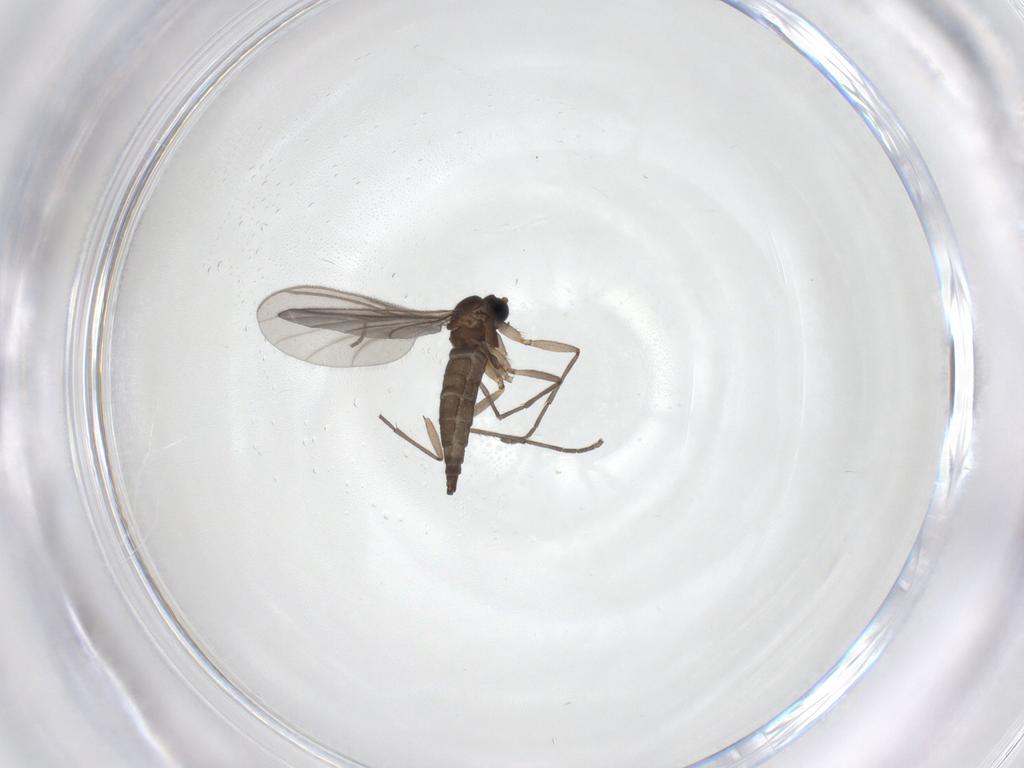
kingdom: Animalia
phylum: Arthropoda
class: Insecta
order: Diptera
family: Sciaridae
